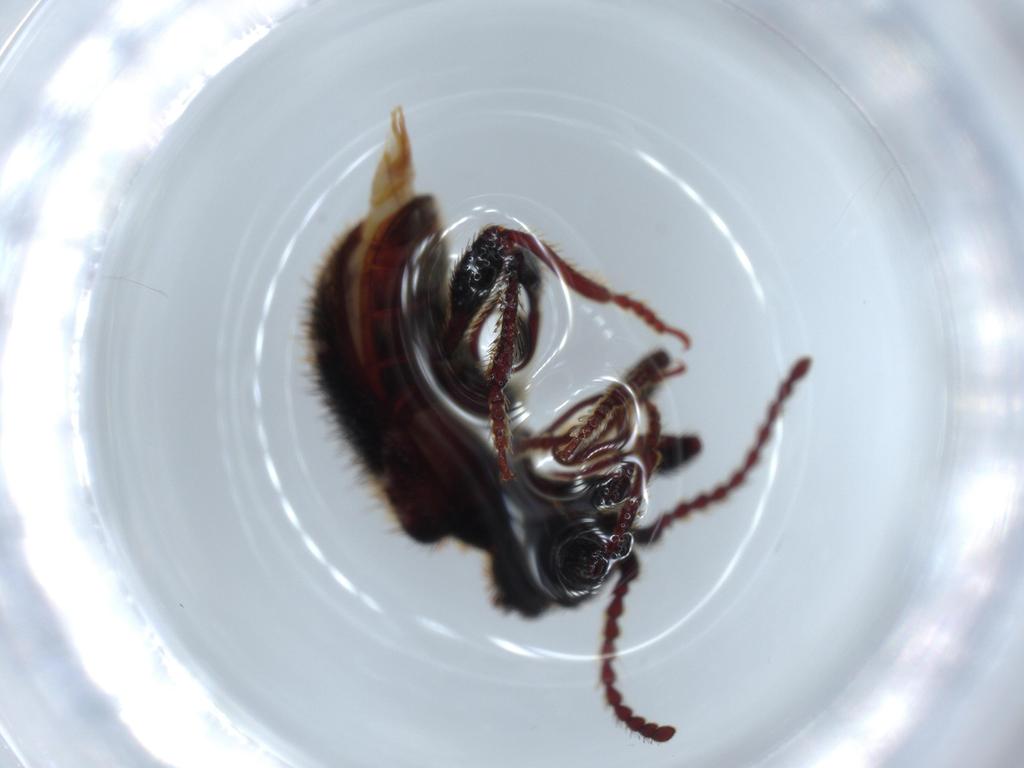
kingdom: Animalia
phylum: Arthropoda
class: Insecta
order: Coleoptera
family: Ptinidae
